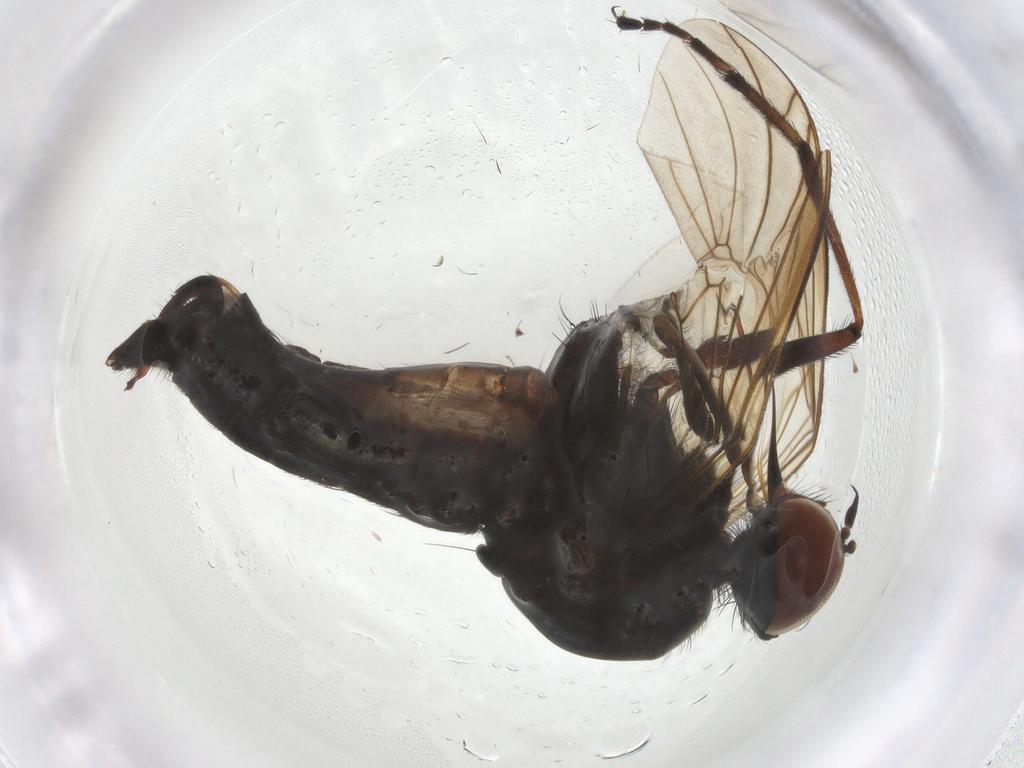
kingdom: Animalia
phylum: Arthropoda
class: Insecta
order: Diptera
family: Empididae
